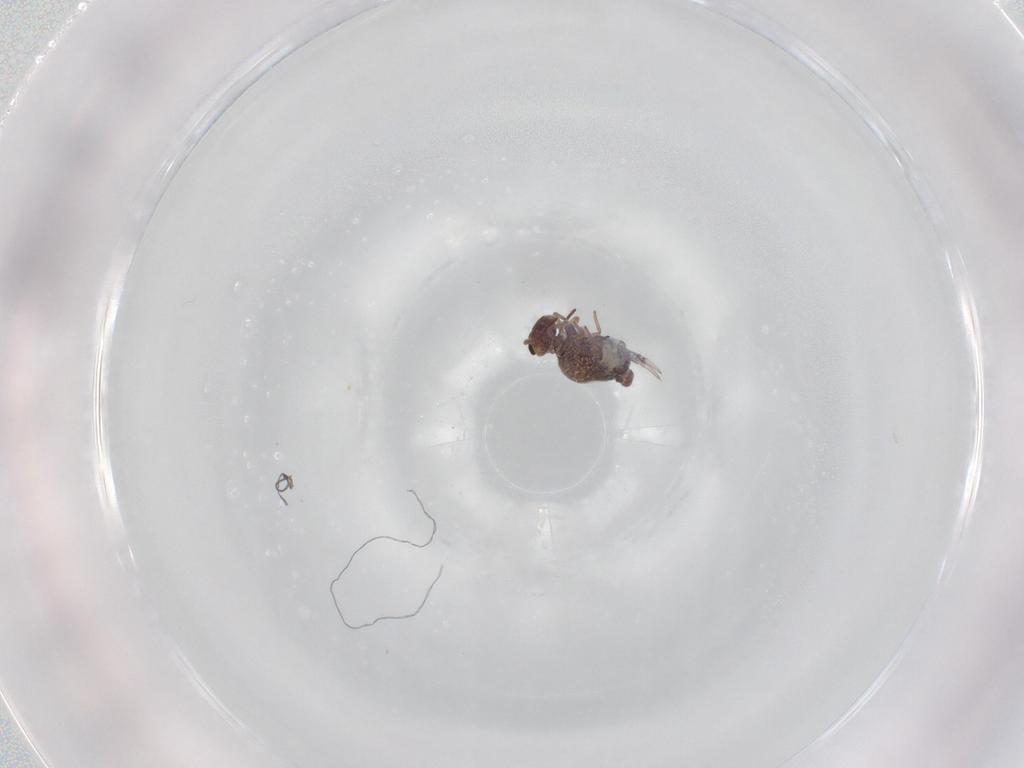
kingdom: Animalia
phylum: Arthropoda
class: Collembola
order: Symphypleona
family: Bourletiellidae
